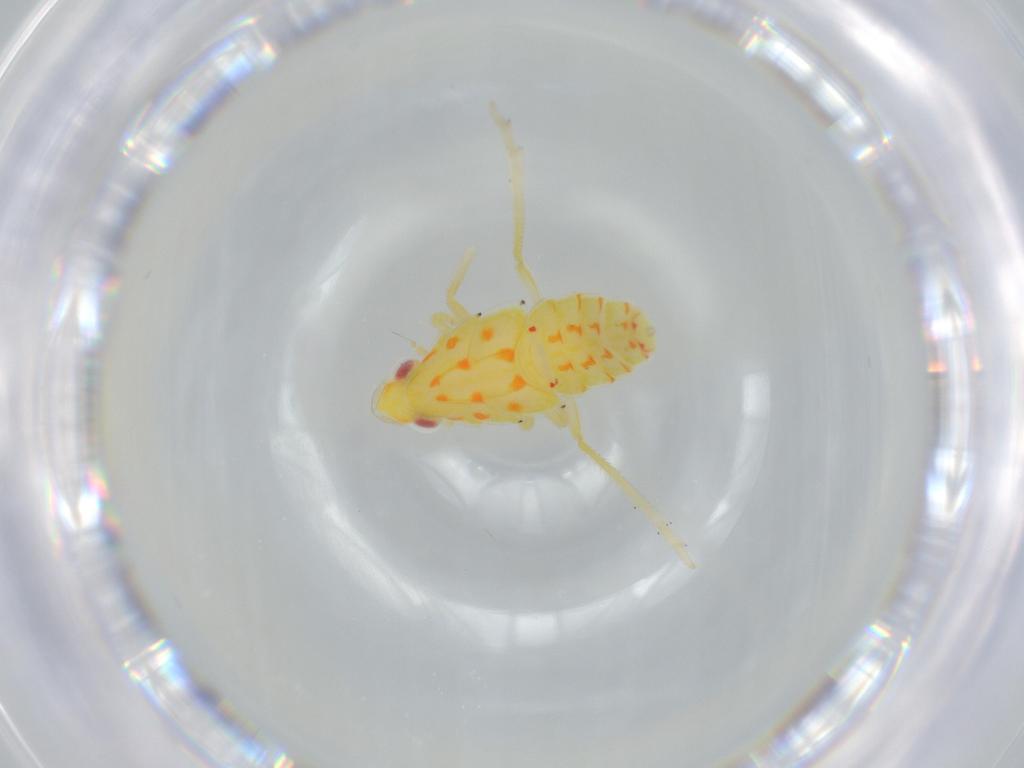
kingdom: Animalia
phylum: Arthropoda
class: Insecta
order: Hemiptera
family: Tropiduchidae
